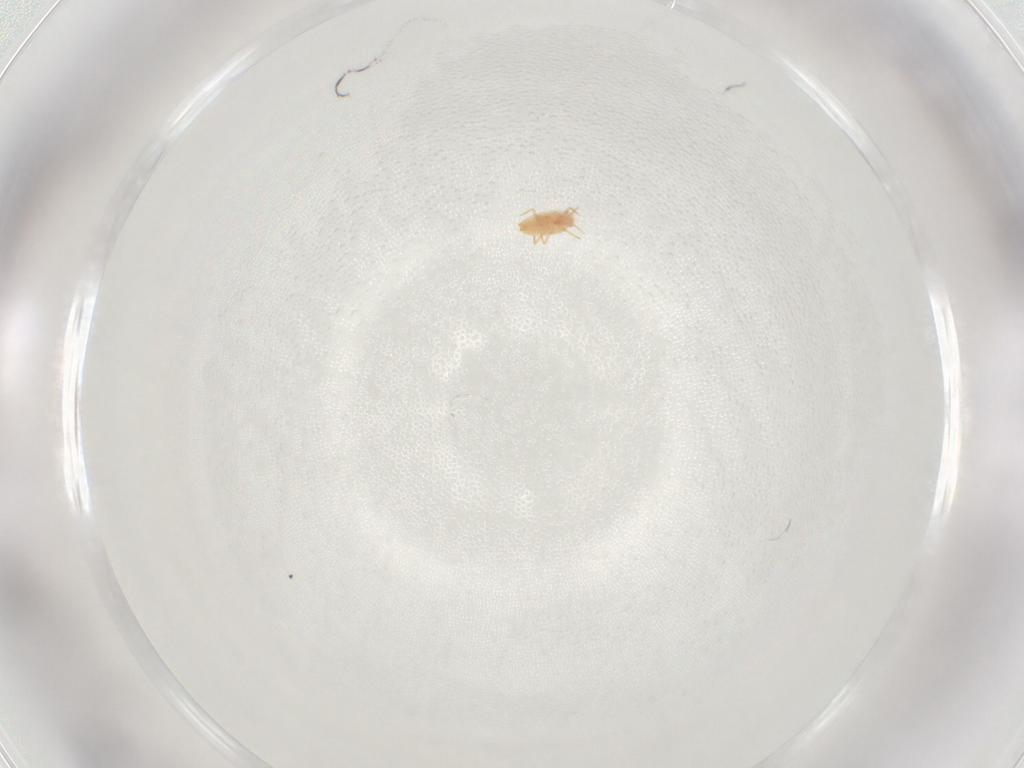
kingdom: Animalia
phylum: Arthropoda
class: Insecta
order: Hemiptera
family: Coccoidea_incertae_sedis
